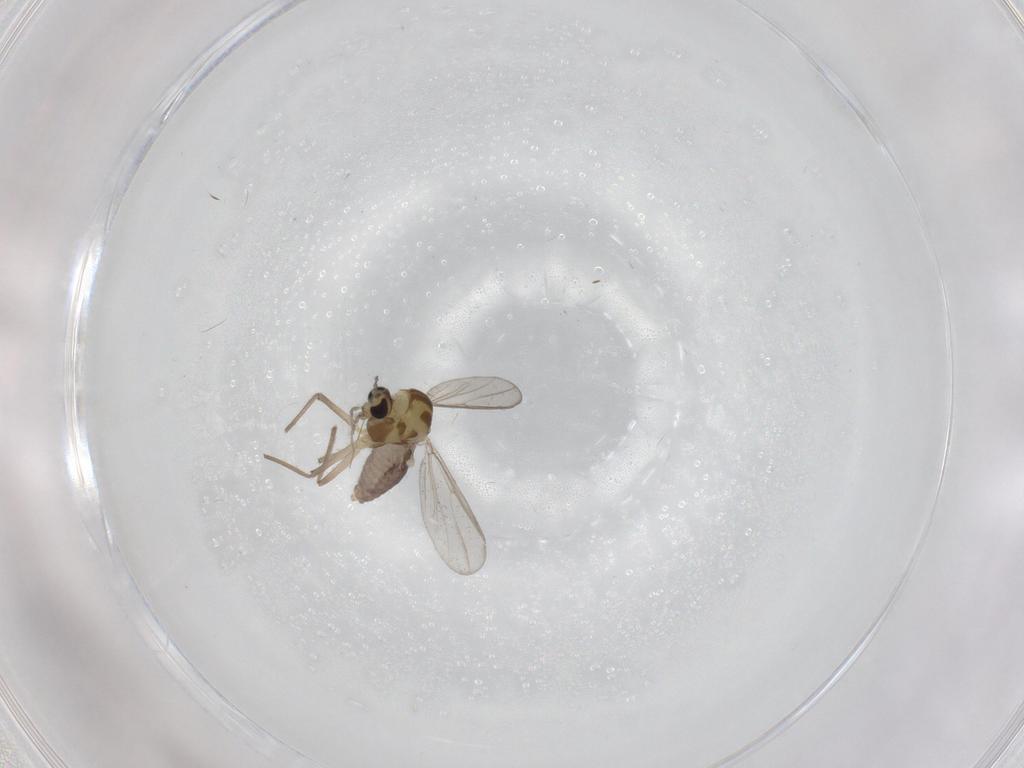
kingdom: Animalia
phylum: Arthropoda
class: Insecta
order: Diptera
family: Chironomidae
